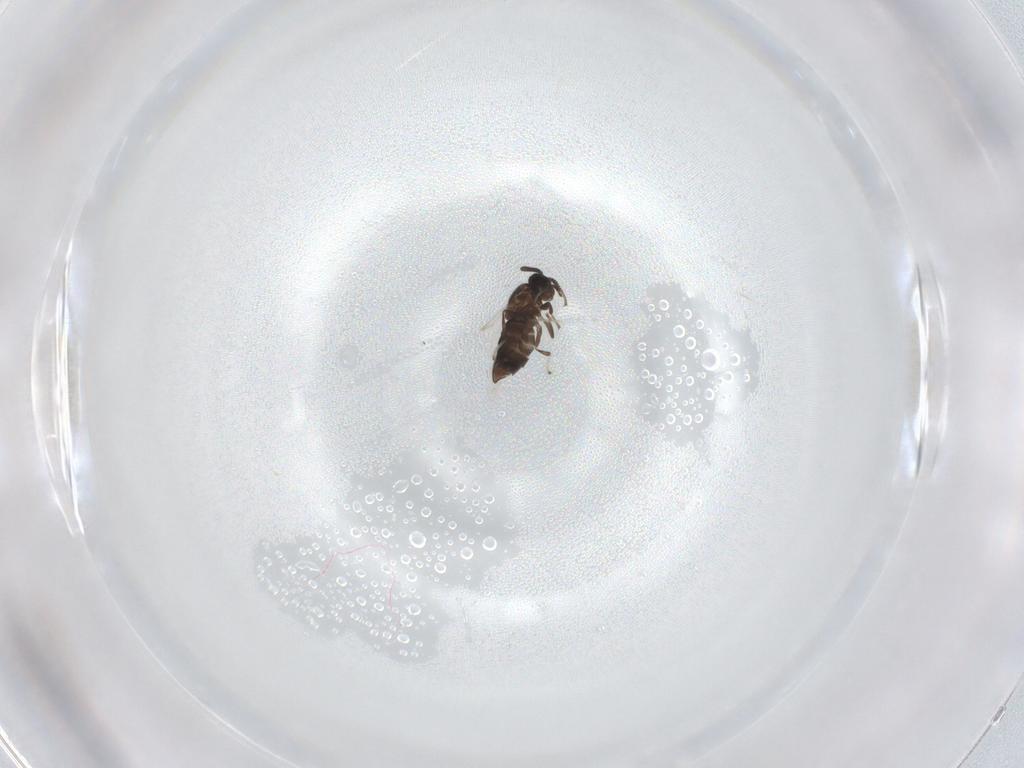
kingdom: Animalia
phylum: Arthropoda
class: Insecta
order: Diptera
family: Scatopsidae
